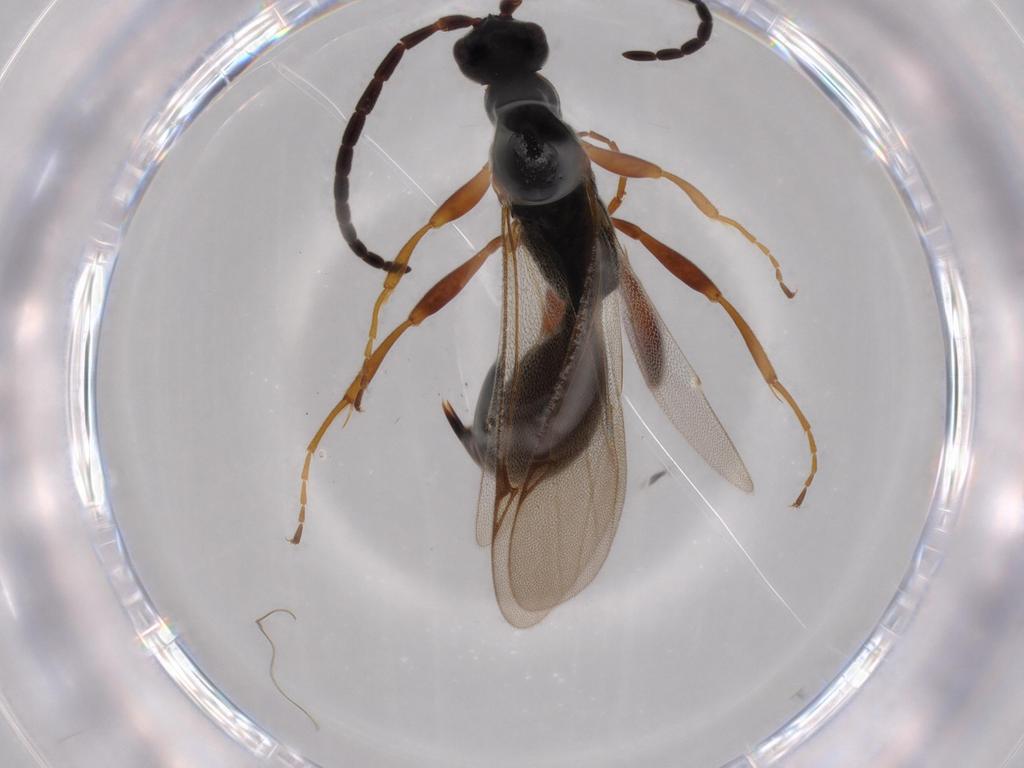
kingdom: Animalia
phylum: Arthropoda
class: Insecta
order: Hymenoptera
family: Proctotrupidae
